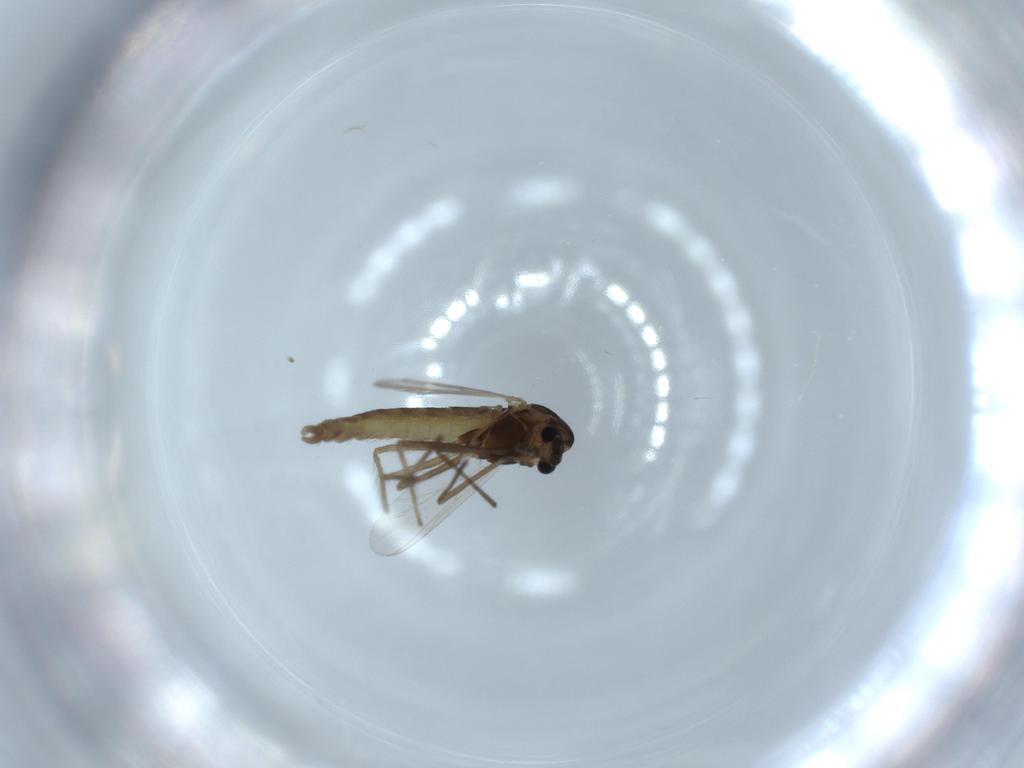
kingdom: Animalia
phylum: Arthropoda
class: Insecta
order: Diptera
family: Chironomidae
